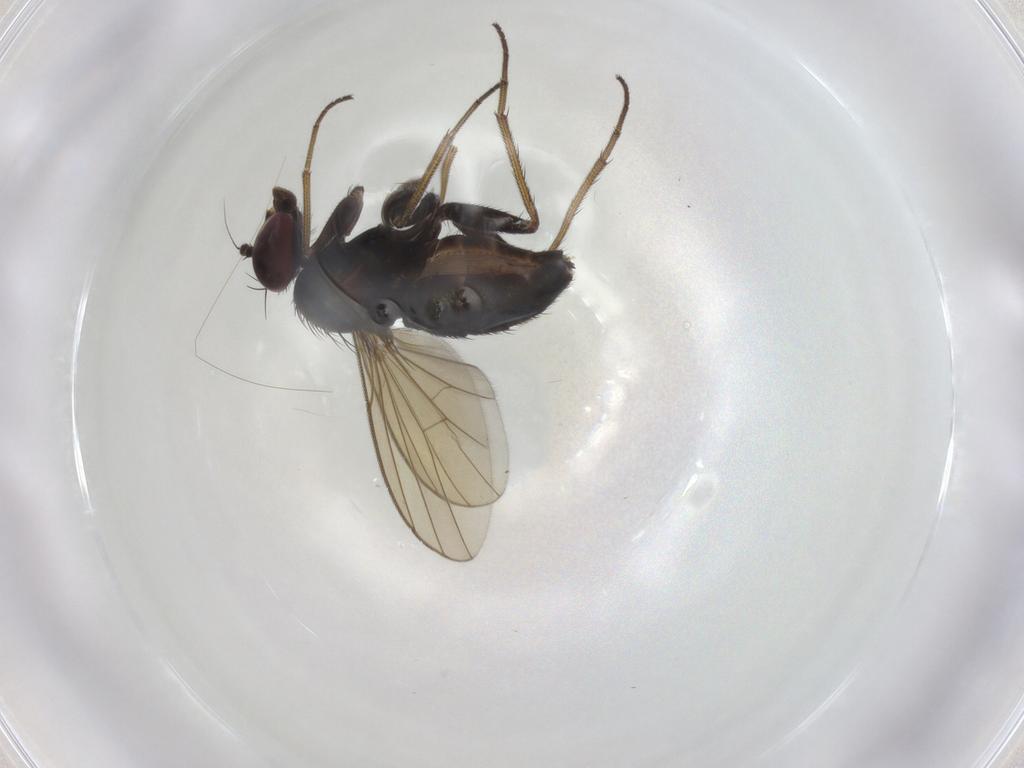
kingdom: Animalia
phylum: Arthropoda
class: Insecta
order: Diptera
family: Dolichopodidae
